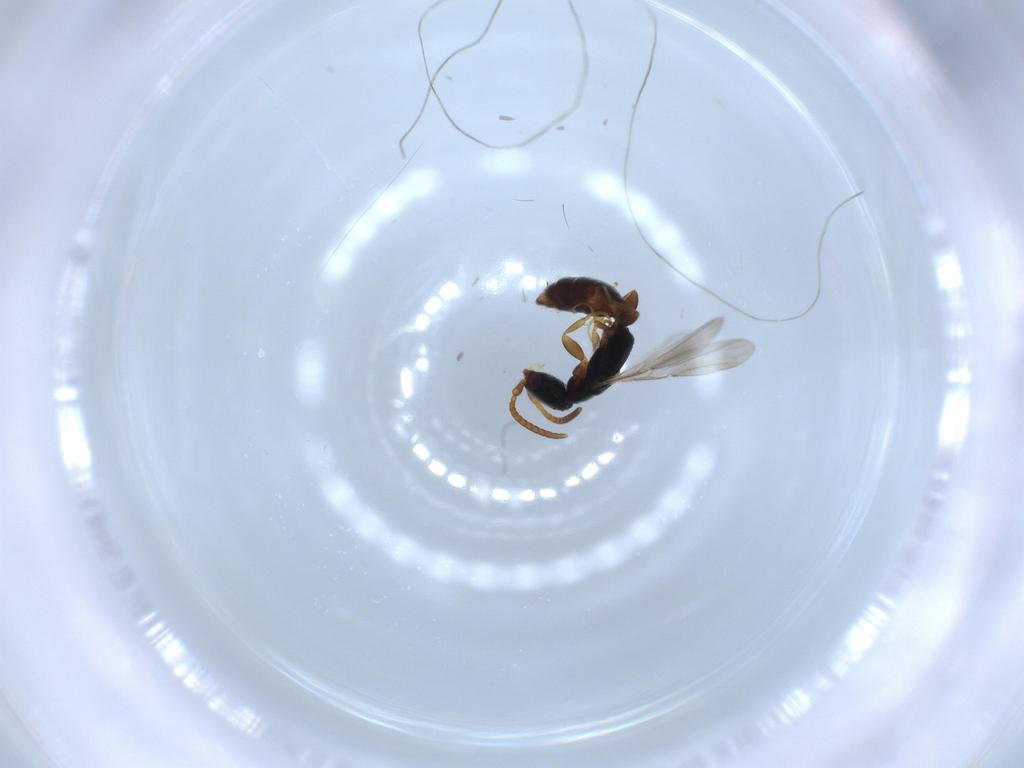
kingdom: Animalia
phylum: Arthropoda
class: Insecta
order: Hymenoptera
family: Bethylidae
